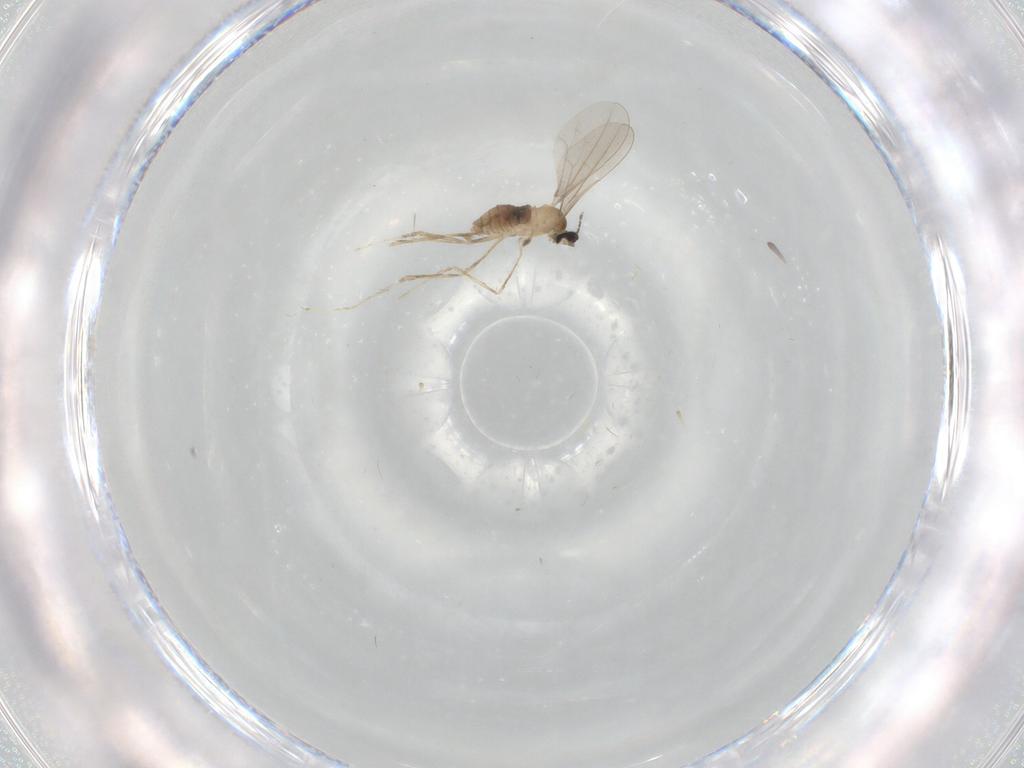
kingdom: Animalia
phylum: Arthropoda
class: Insecta
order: Diptera
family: Cecidomyiidae
